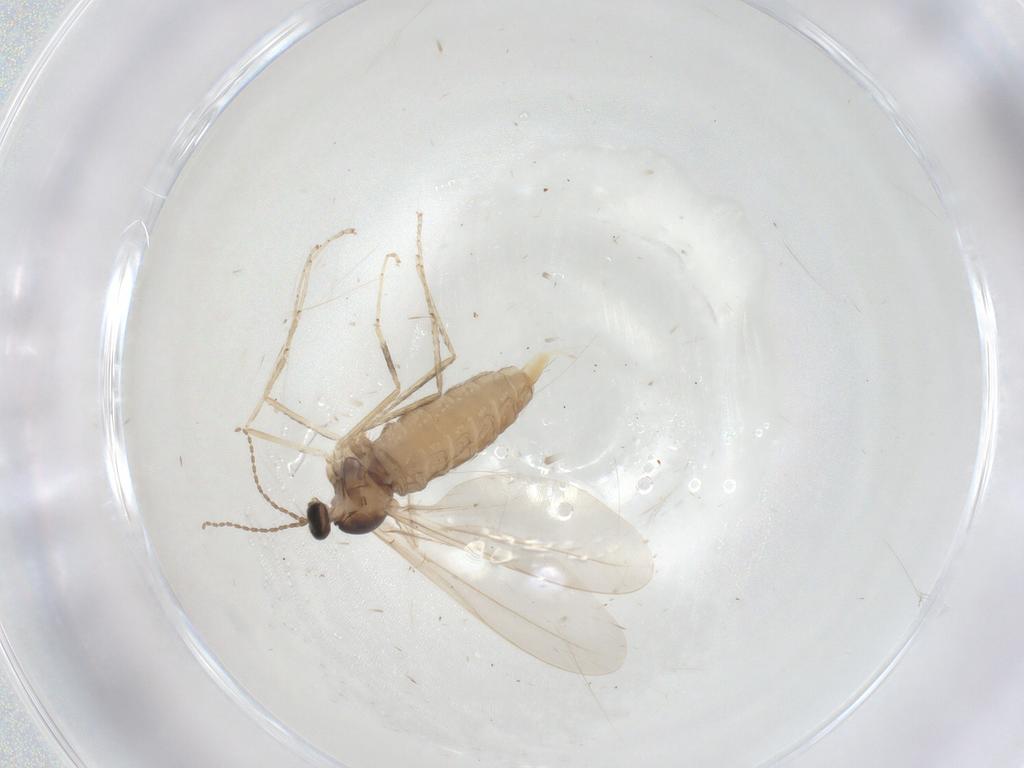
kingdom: Animalia
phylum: Arthropoda
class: Insecta
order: Diptera
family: Cecidomyiidae
